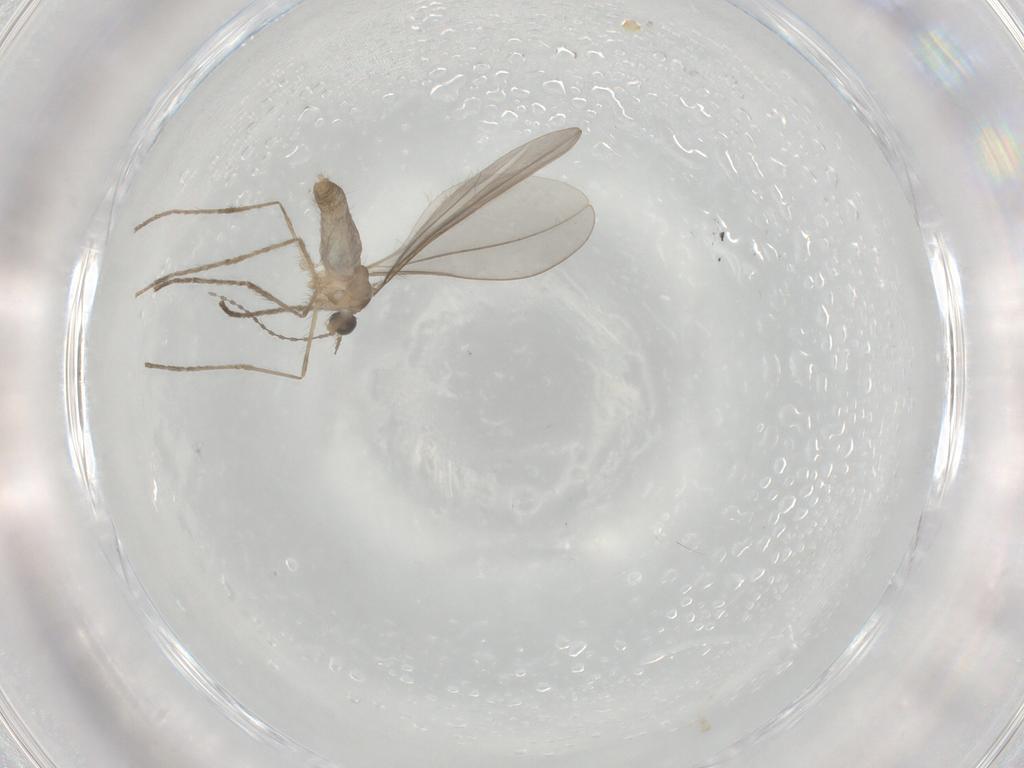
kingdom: Animalia
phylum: Arthropoda
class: Insecta
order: Diptera
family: Cecidomyiidae
